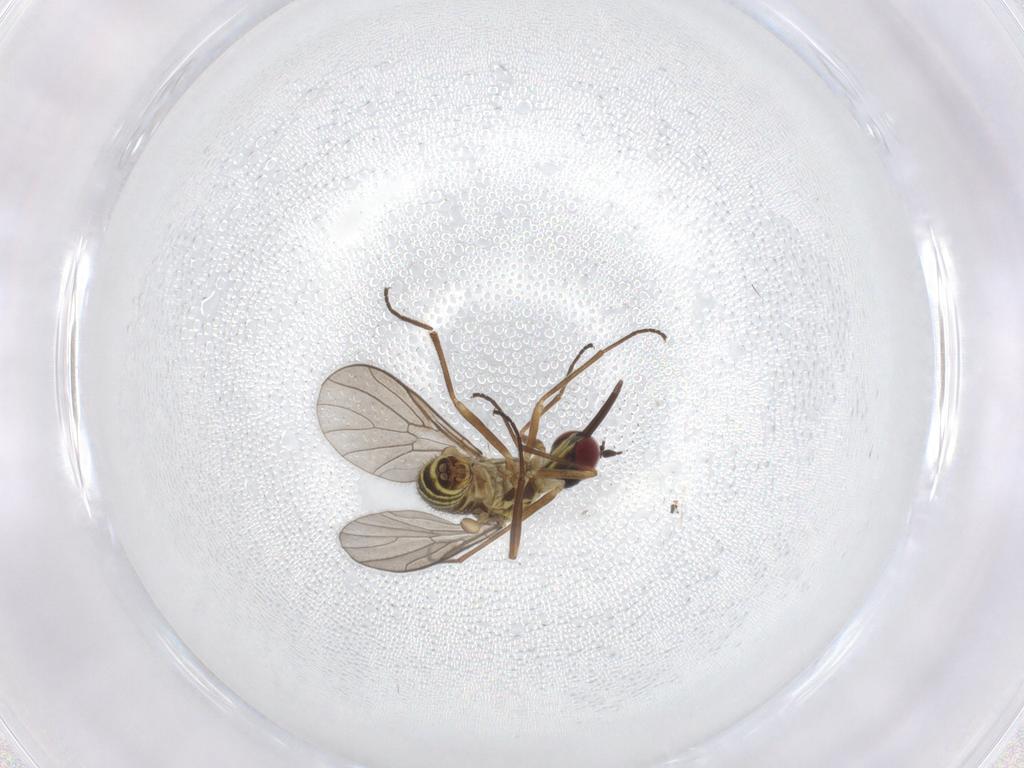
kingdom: Animalia
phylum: Arthropoda
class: Insecta
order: Diptera
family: Mythicomyiidae
